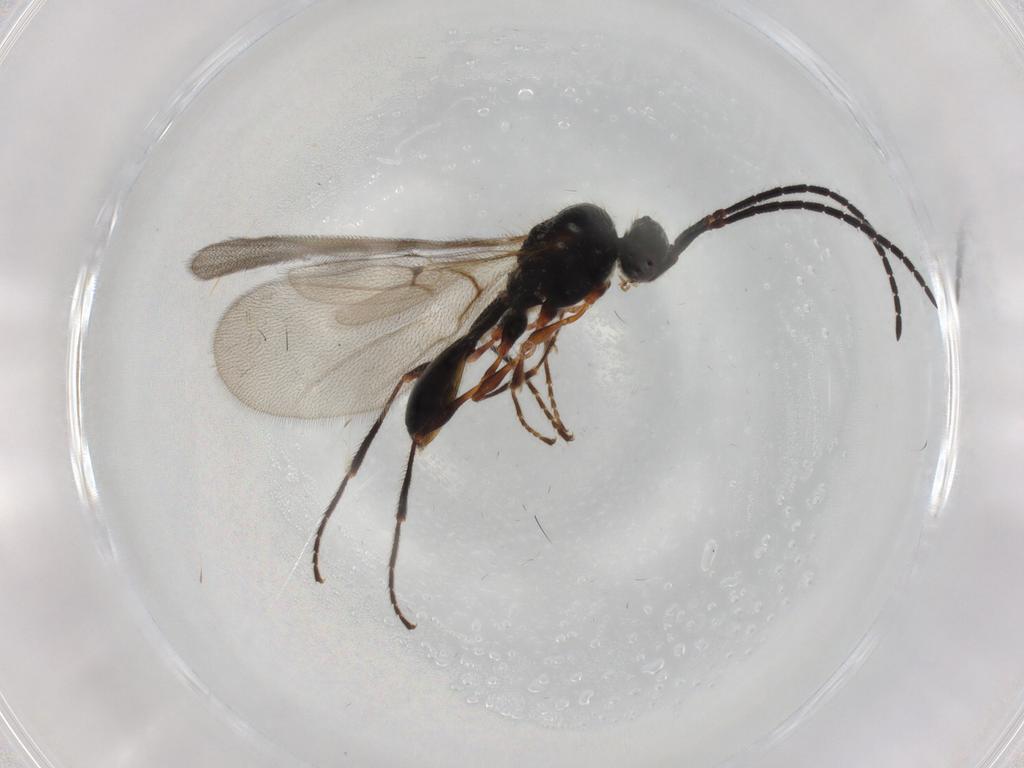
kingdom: Animalia
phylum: Arthropoda
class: Insecta
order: Hymenoptera
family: Diapriidae
